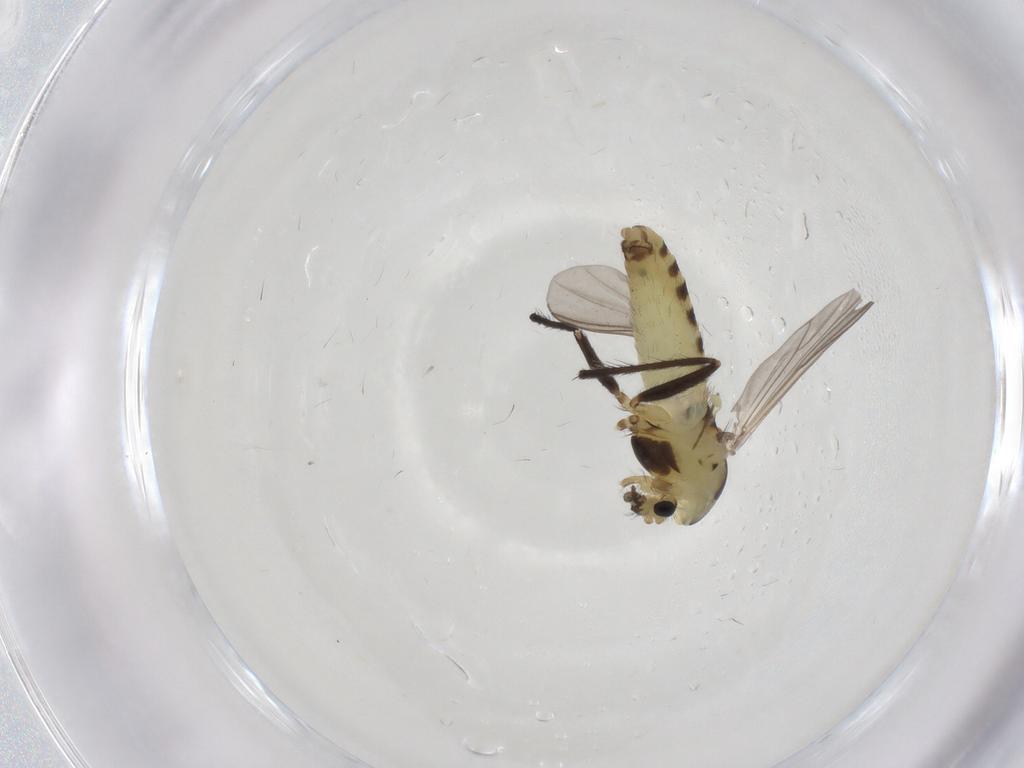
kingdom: Animalia
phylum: Arthropoda
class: Insecta
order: Diptera
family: Chironomidae
